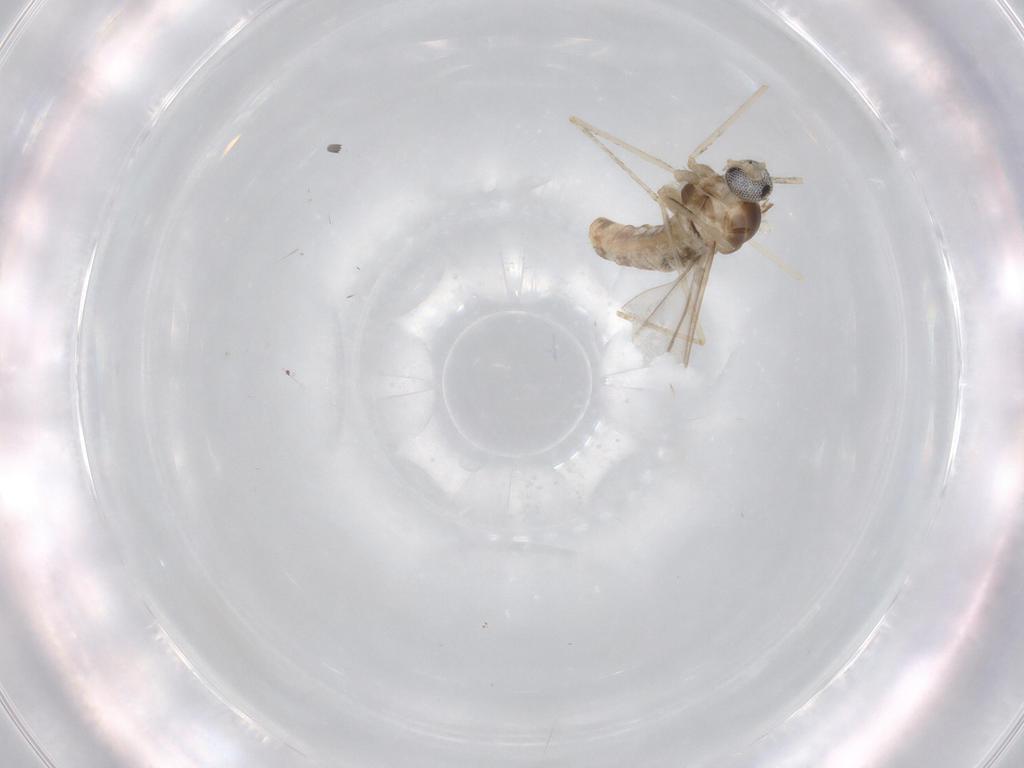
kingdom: Animalia
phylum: Arthropoda
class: Insecta
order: Diptera
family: Cecidomyiidae
